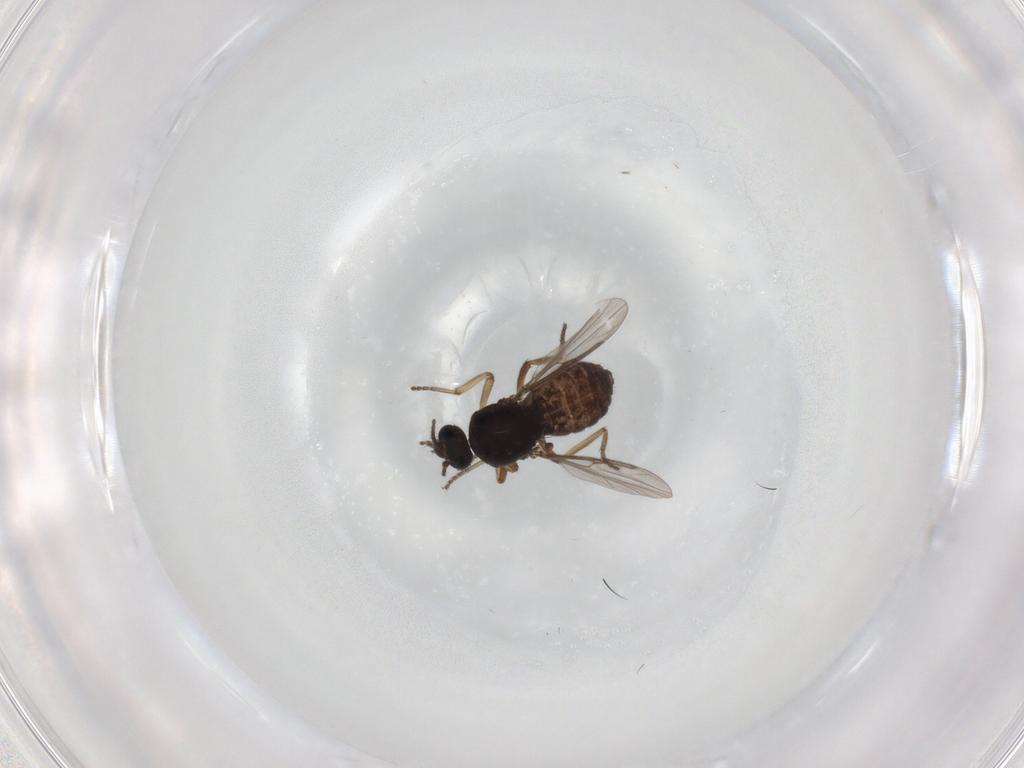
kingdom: Animalia
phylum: Arthropoda
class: Insecta
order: Diptera
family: Ceratopogonidae
